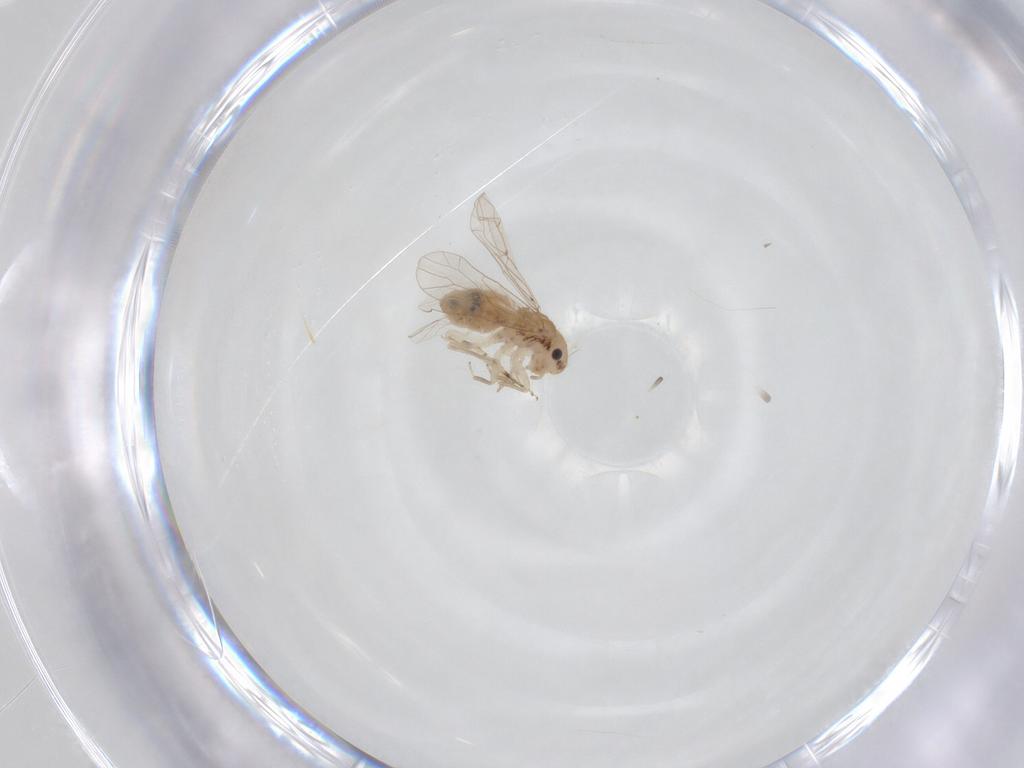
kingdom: Animalia
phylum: Arthropoda
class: Insecta
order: Psocodea
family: Ectopsocidae
